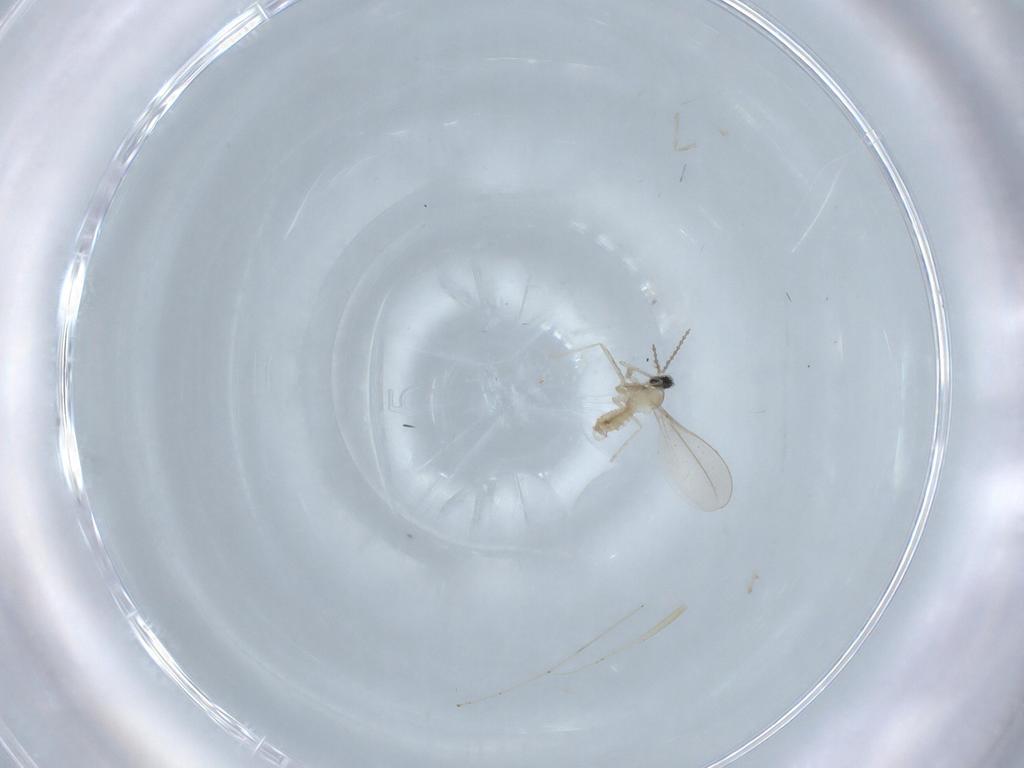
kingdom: Animalia
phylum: Arthropoda
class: Insecta
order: Diptera
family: Cecidomyiidae
